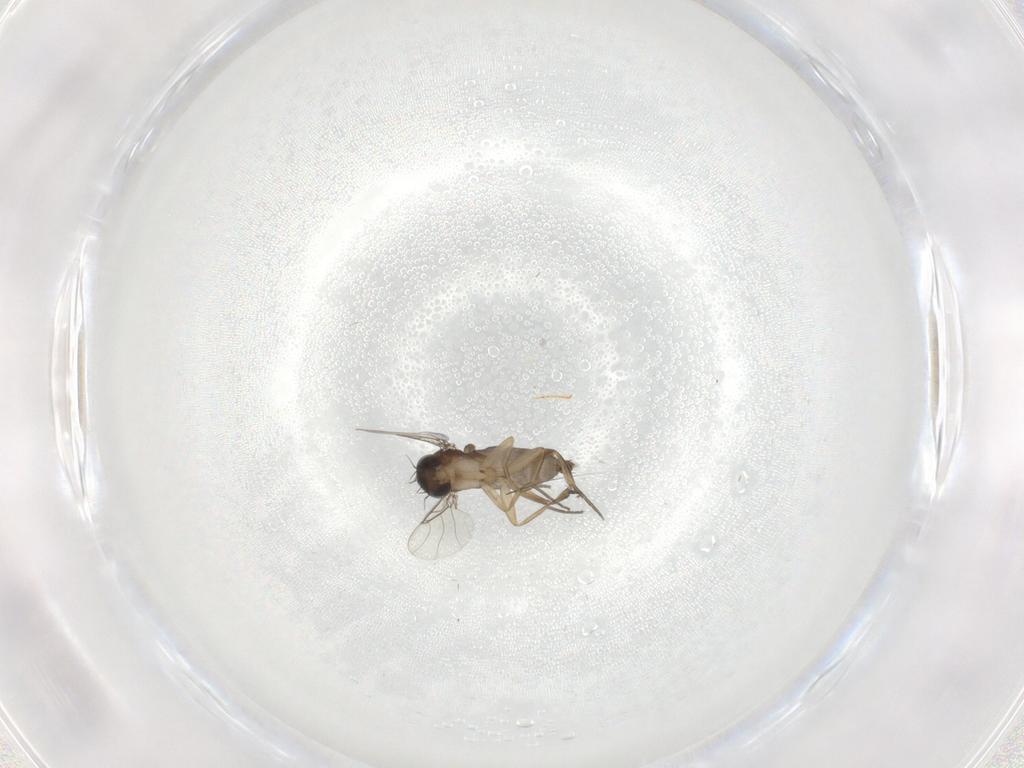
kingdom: Animalia
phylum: Arthropoda
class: Insecta
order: Diptera
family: Phoridae
